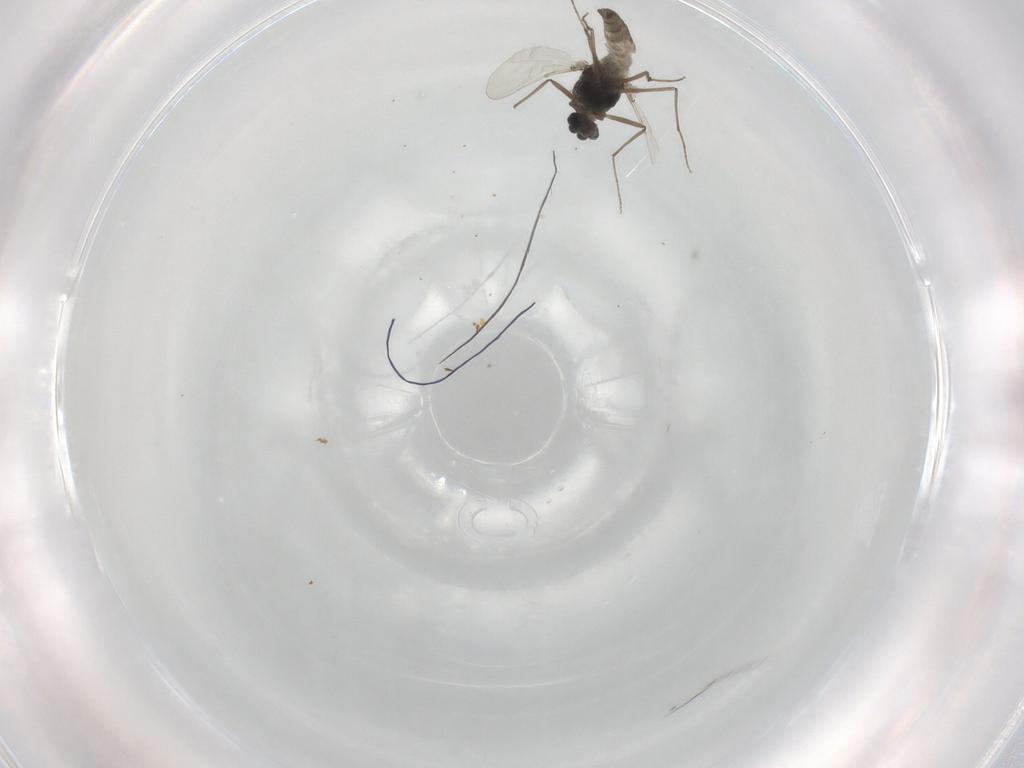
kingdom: Animalia
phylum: Arthropoda
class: Insecta
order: Diptera
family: Chironomidae
